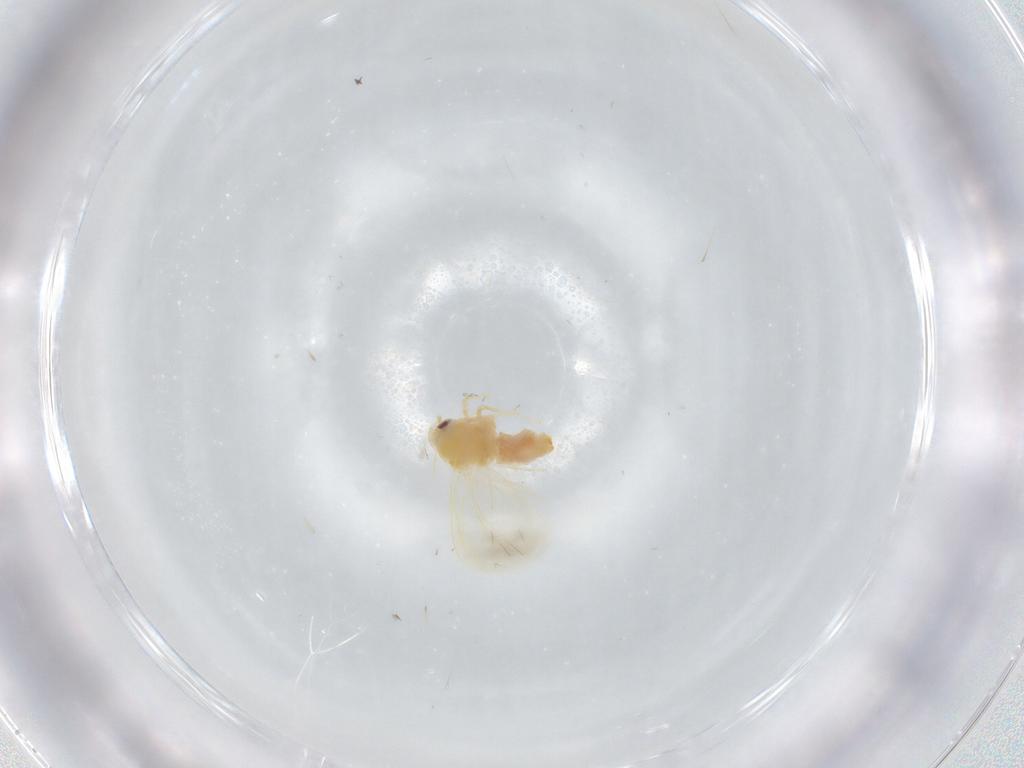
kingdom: Animalia
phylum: Arthropoda
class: Insecta
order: Hemiptera
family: Aleyrodidae
